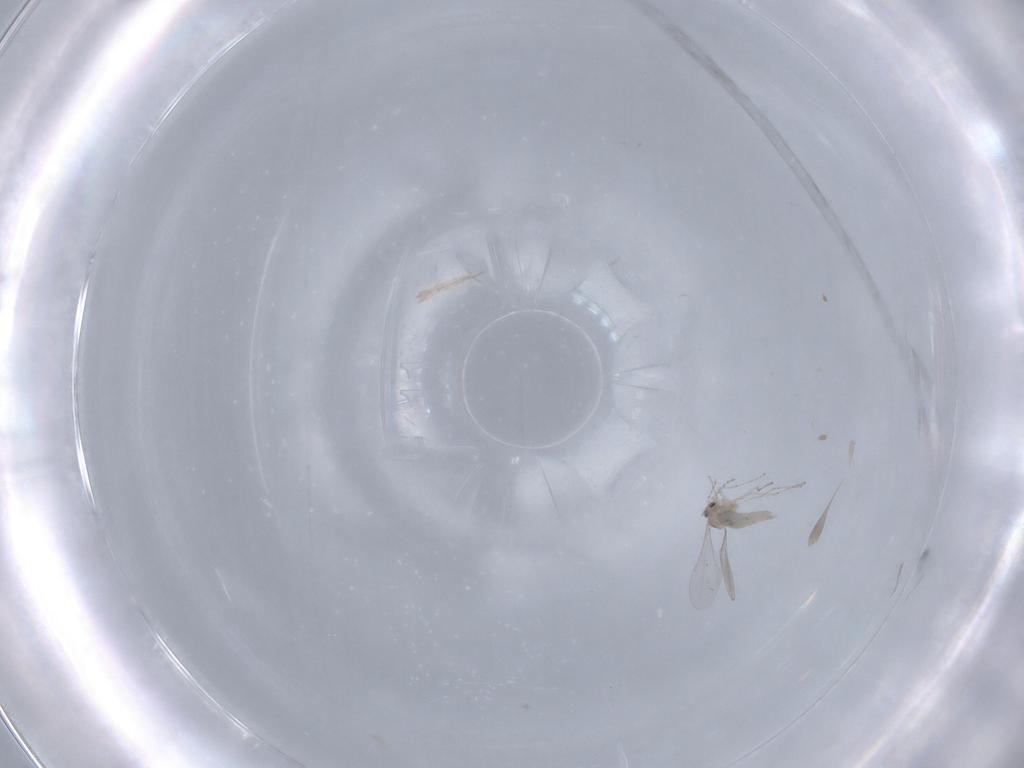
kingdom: Animalia
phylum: Arthropoda
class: Insecta
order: Diptera
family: Cecidomyiidae
